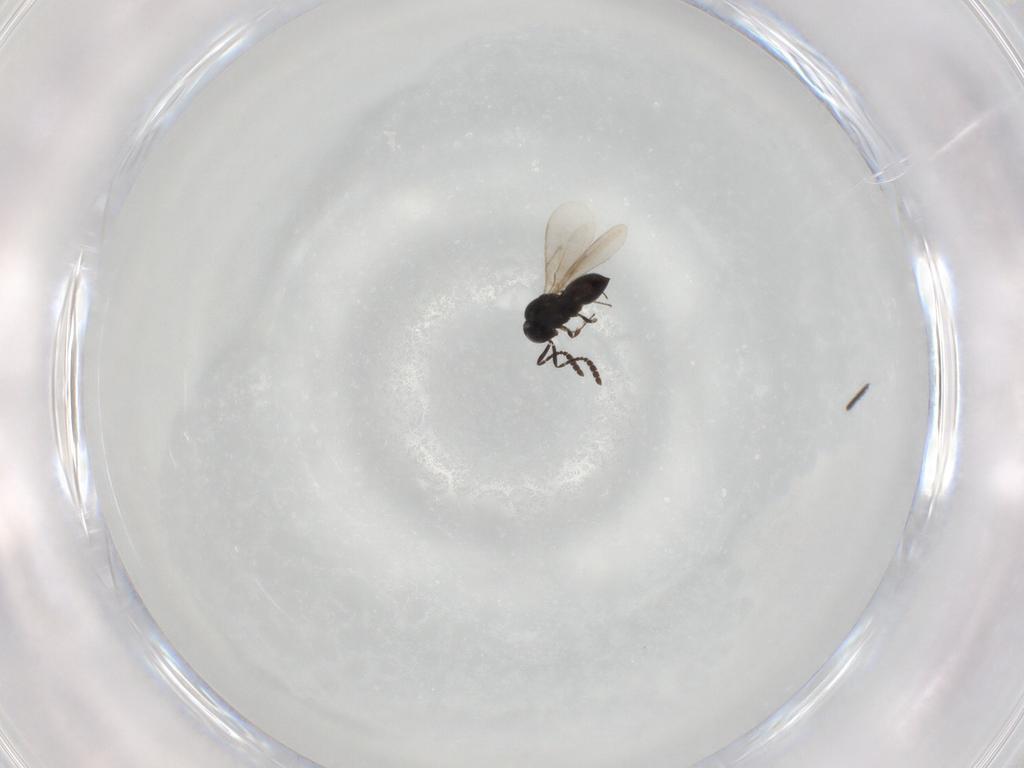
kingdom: Animalia
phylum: Arthropoda
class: Insecta
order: Hymenoptera
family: Scelionidae
